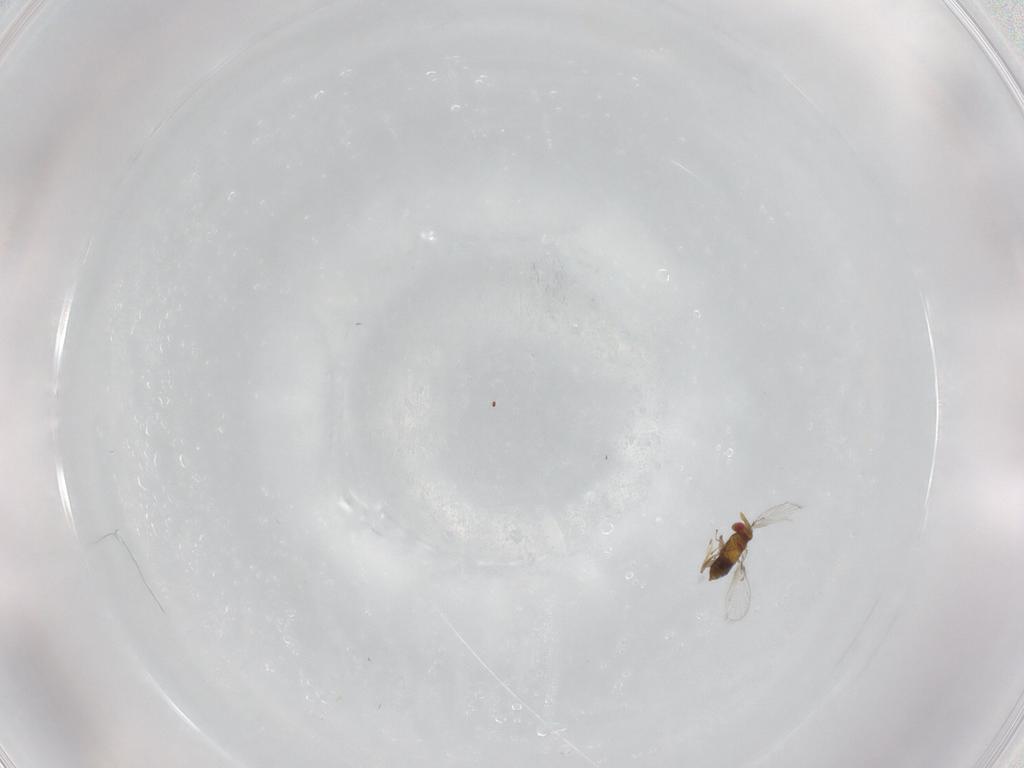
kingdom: Animalia
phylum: Arthropoda
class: Insecta
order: Hymenoptera
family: Trichogrammatidae
